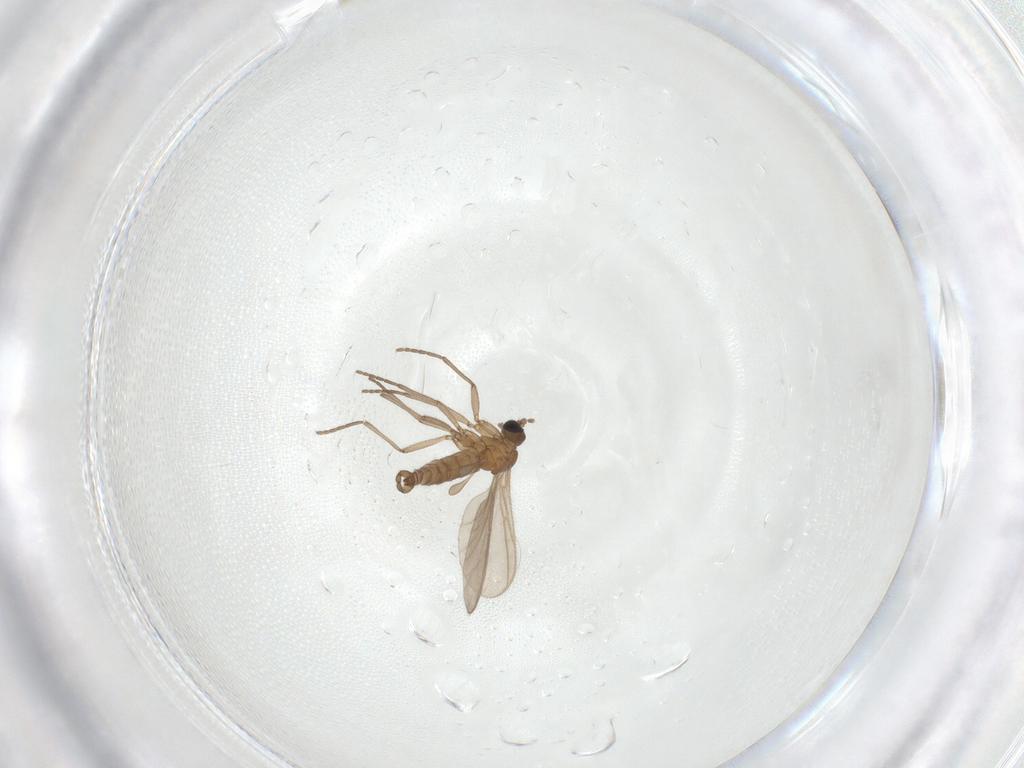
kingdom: Animalia
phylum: Arthropoda
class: Insecta
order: Diptera
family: Sciaridae
